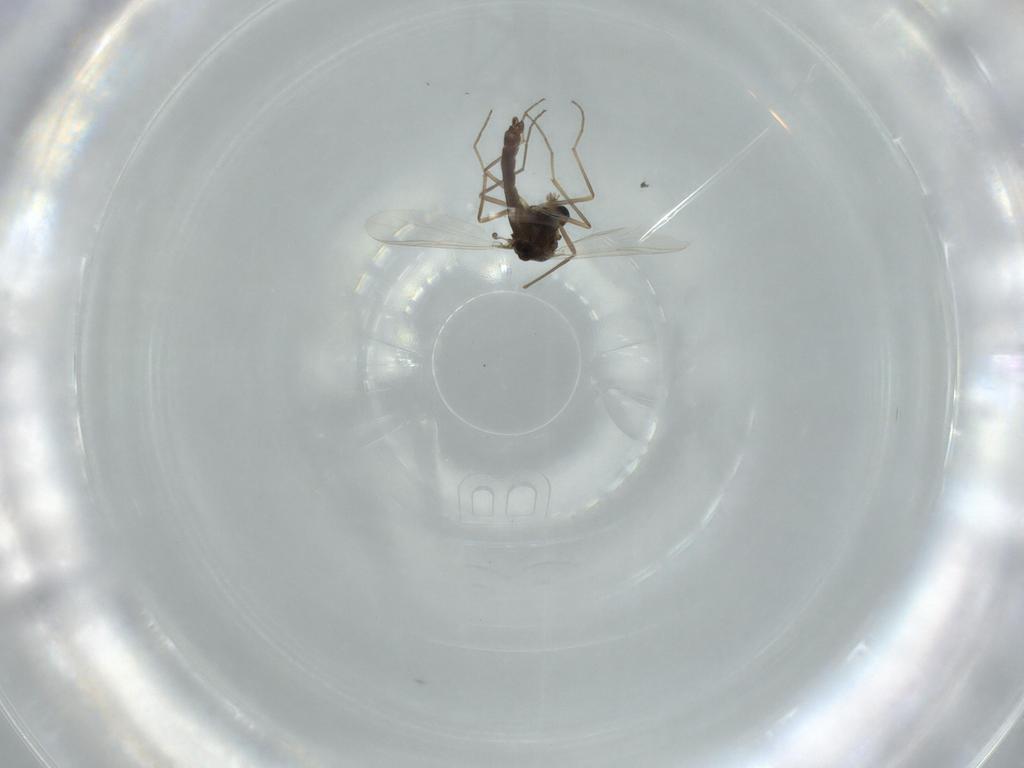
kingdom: Animalia
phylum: Arthropoda
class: Insecta
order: Diptera
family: Chironomidae
